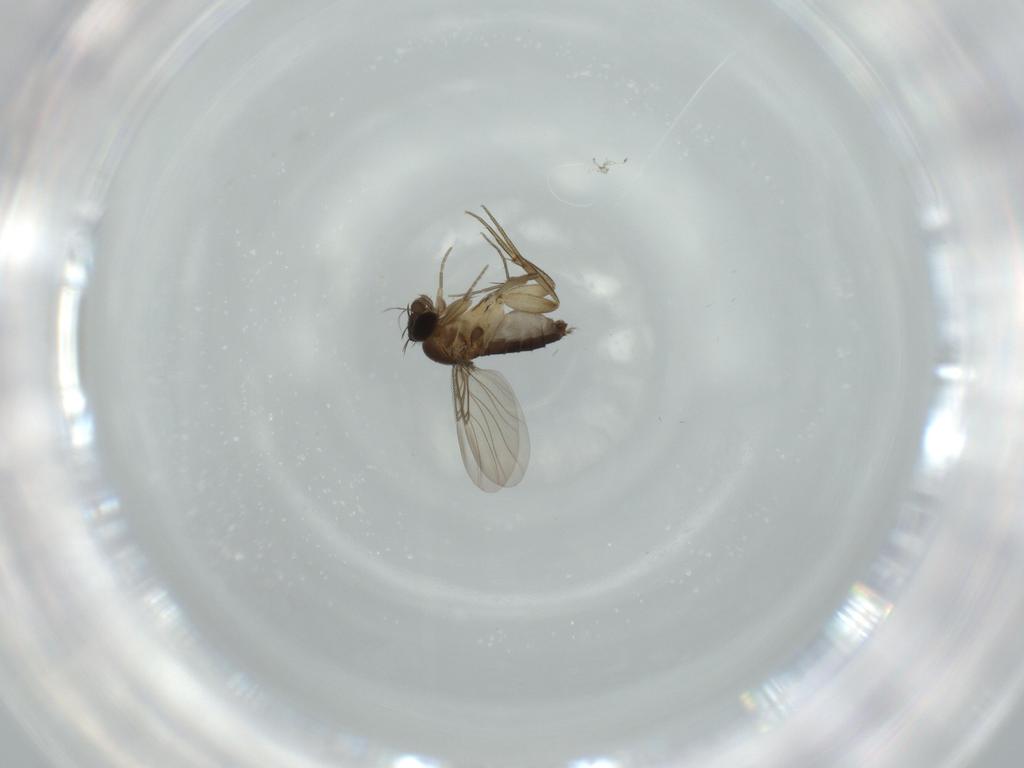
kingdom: Animalia
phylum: Arthropoda
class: Insecta
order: Diptera
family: Phoridae
